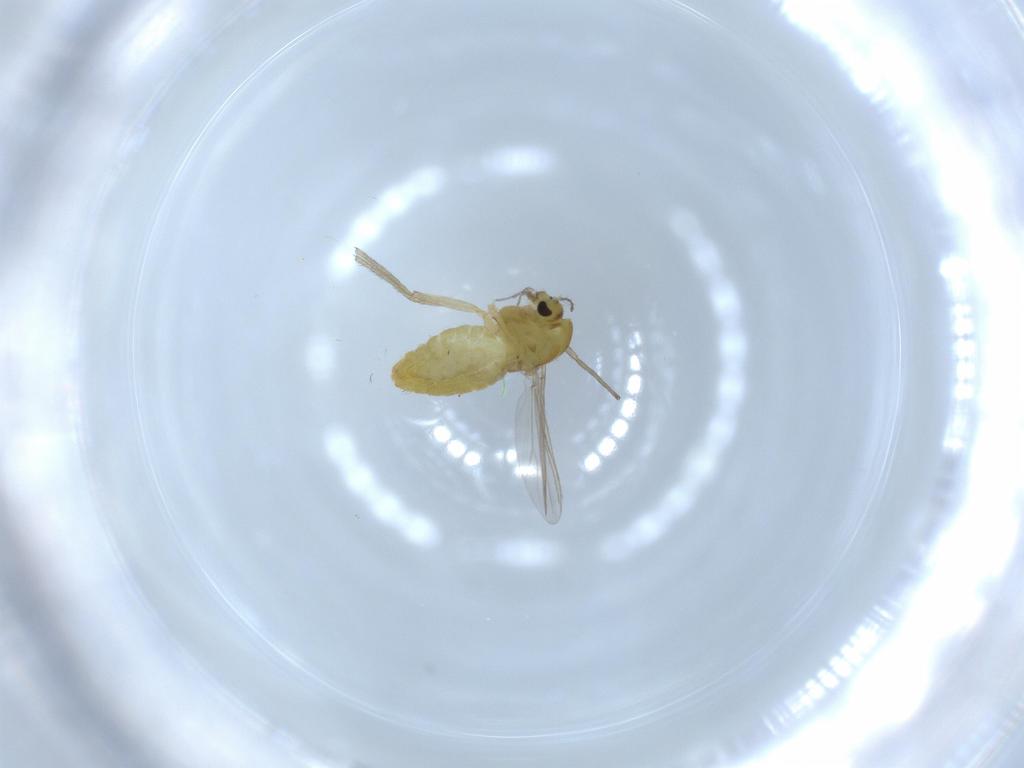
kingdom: Animalia
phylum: Arthropoda
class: Insecta
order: Diptera
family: Chironomidae
